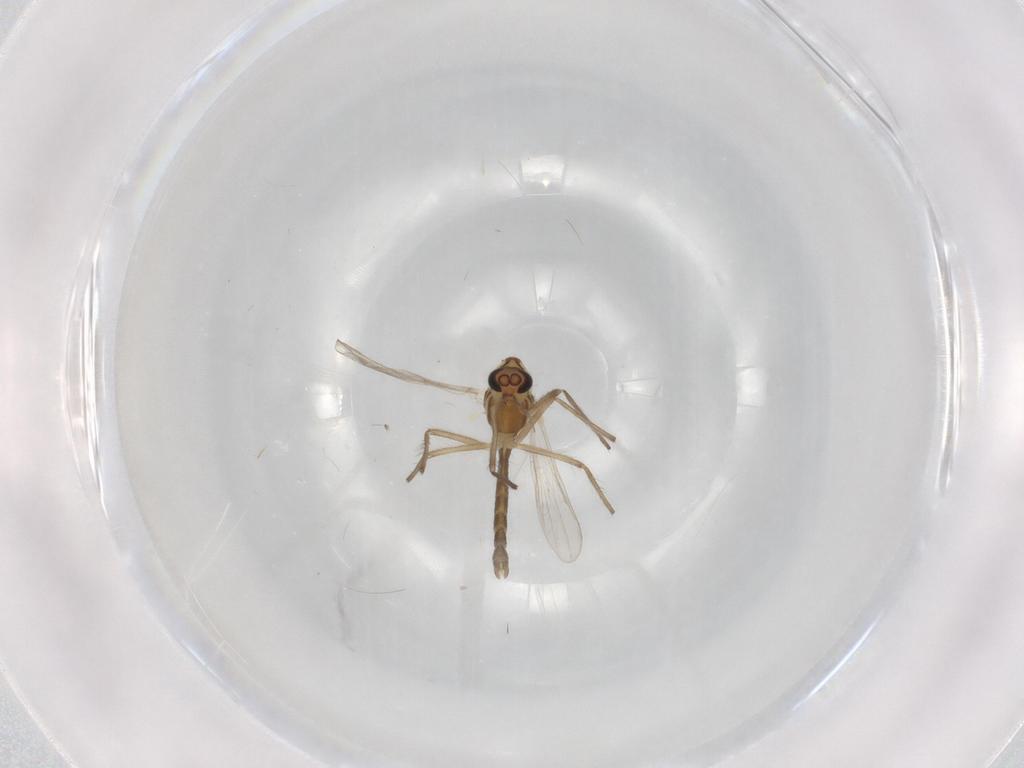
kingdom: Animalia
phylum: Arthropoda
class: Insecta
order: Diptera
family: Chironomidae
